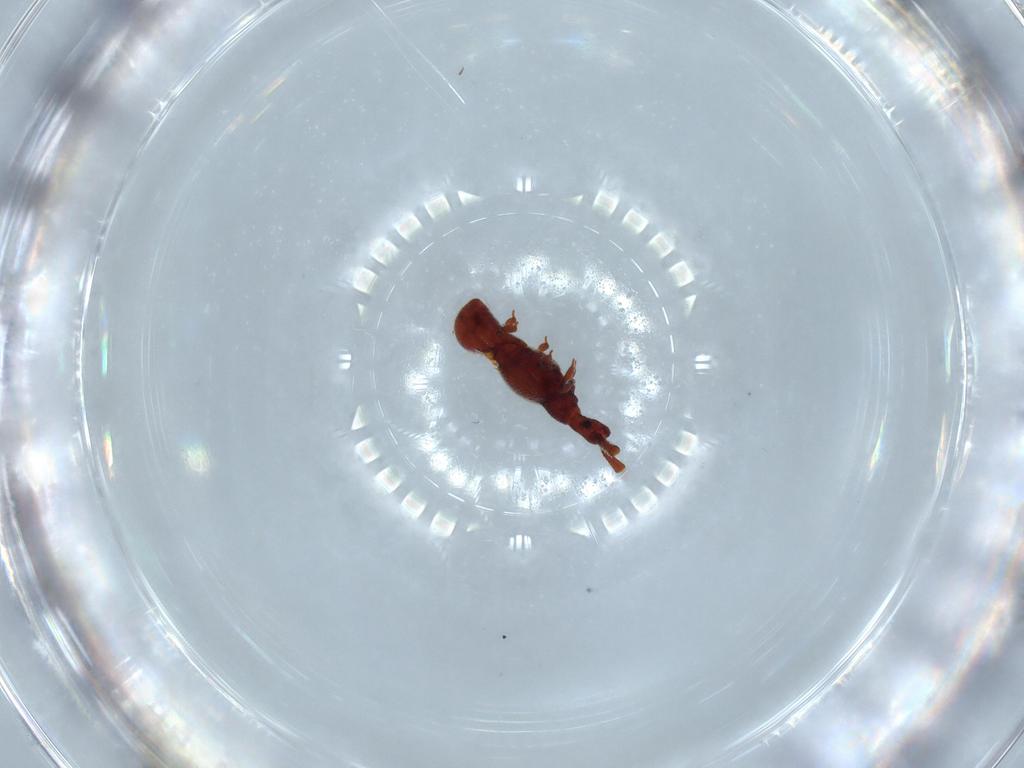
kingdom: Animalia
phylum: Arthropoda
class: Insecta
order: Coleoptera
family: Staphylinidae
